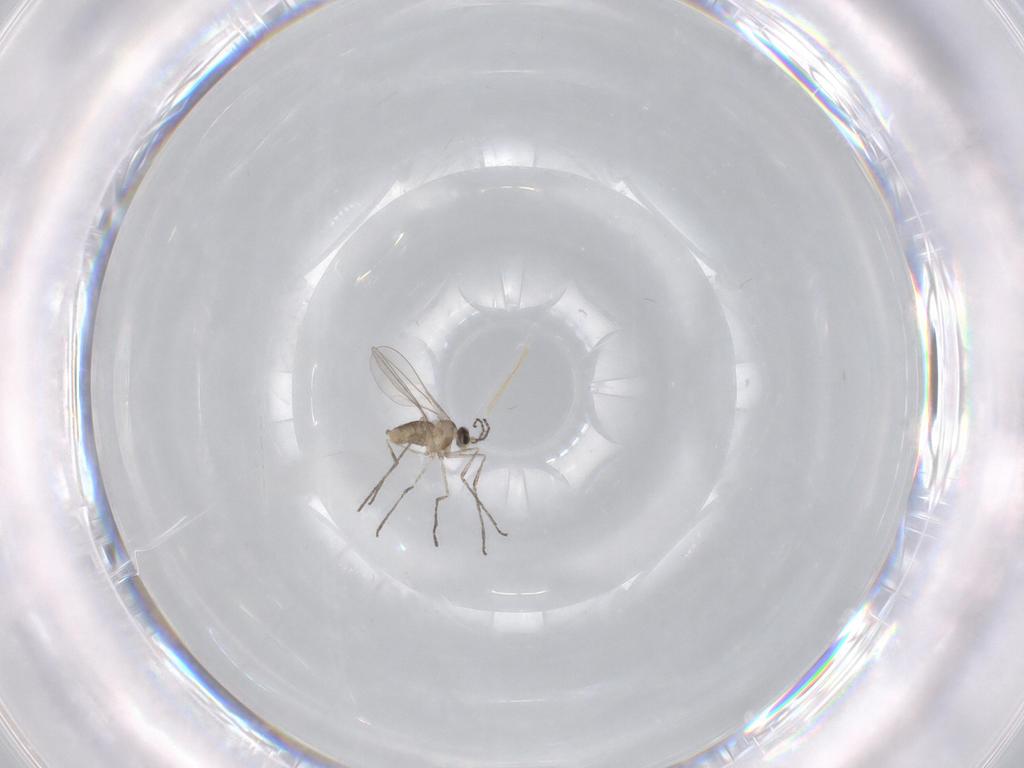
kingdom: Animalia
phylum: Arthropoda
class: Insecta
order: Diptera
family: Cecidomyiidae
